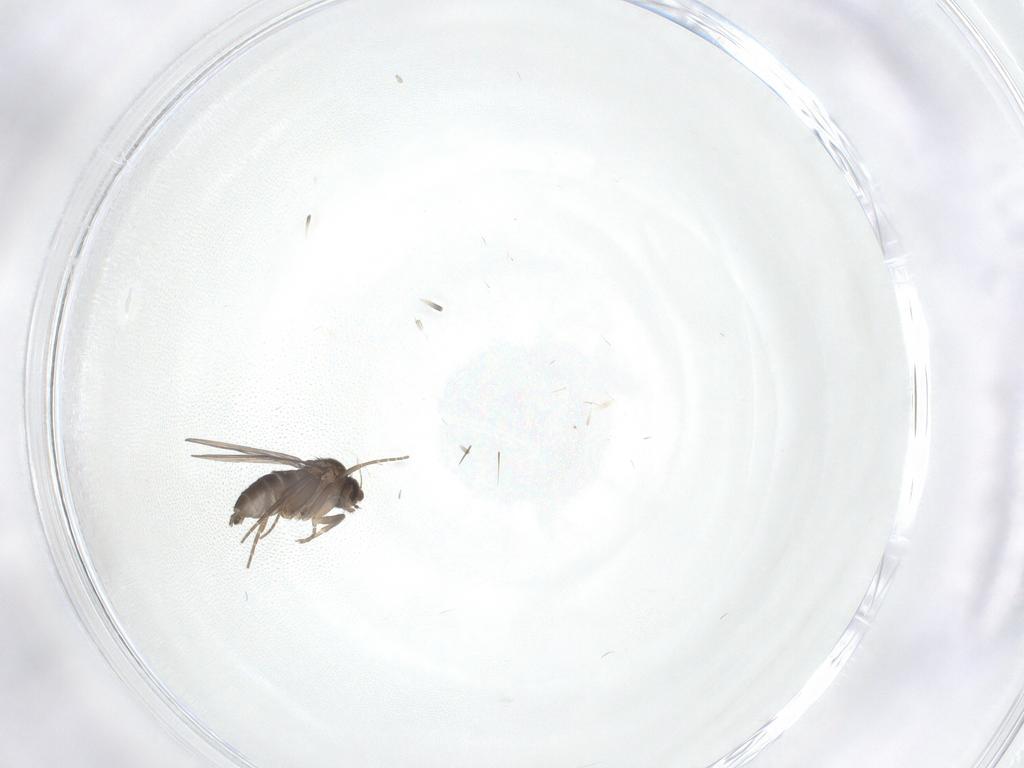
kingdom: Animalia
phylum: Arthropoda
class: Insecta
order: Diptera
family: Phoridae
